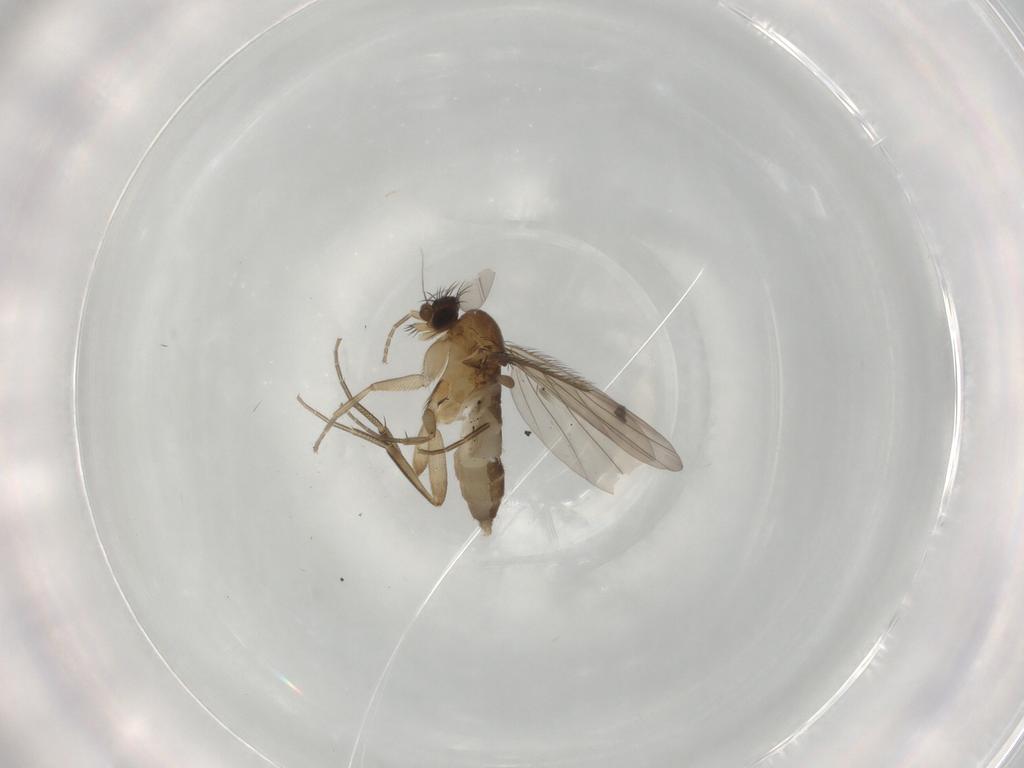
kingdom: Animalia
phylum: Arthropoda
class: Insecta
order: Diptera
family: Phoridae
